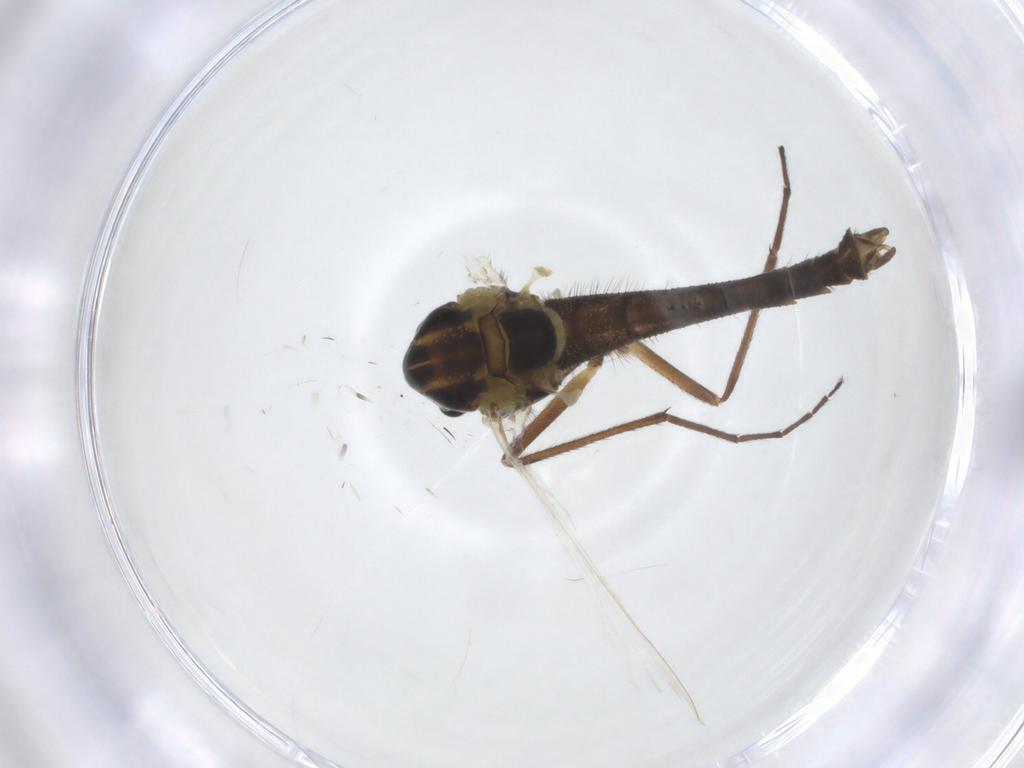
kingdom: Animalia
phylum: Arthropoda
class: Insecta
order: Diptera
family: Chironomidae
